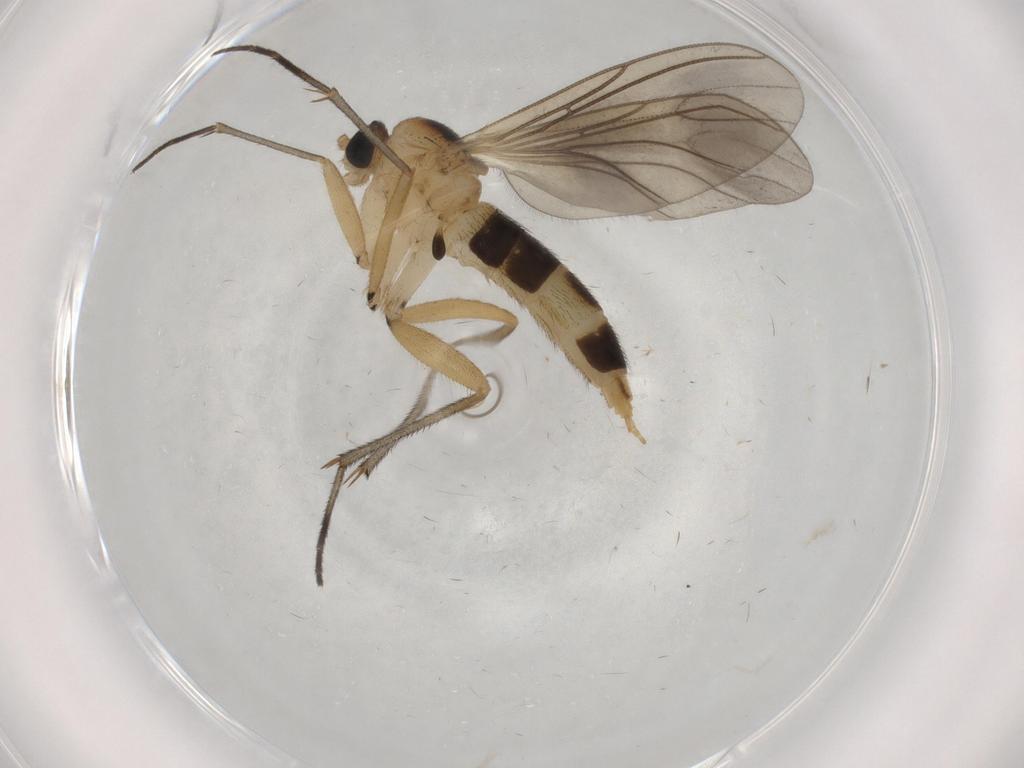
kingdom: Animalia
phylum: Arthropoda
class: Insecta
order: Diptera
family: Sciaridae
